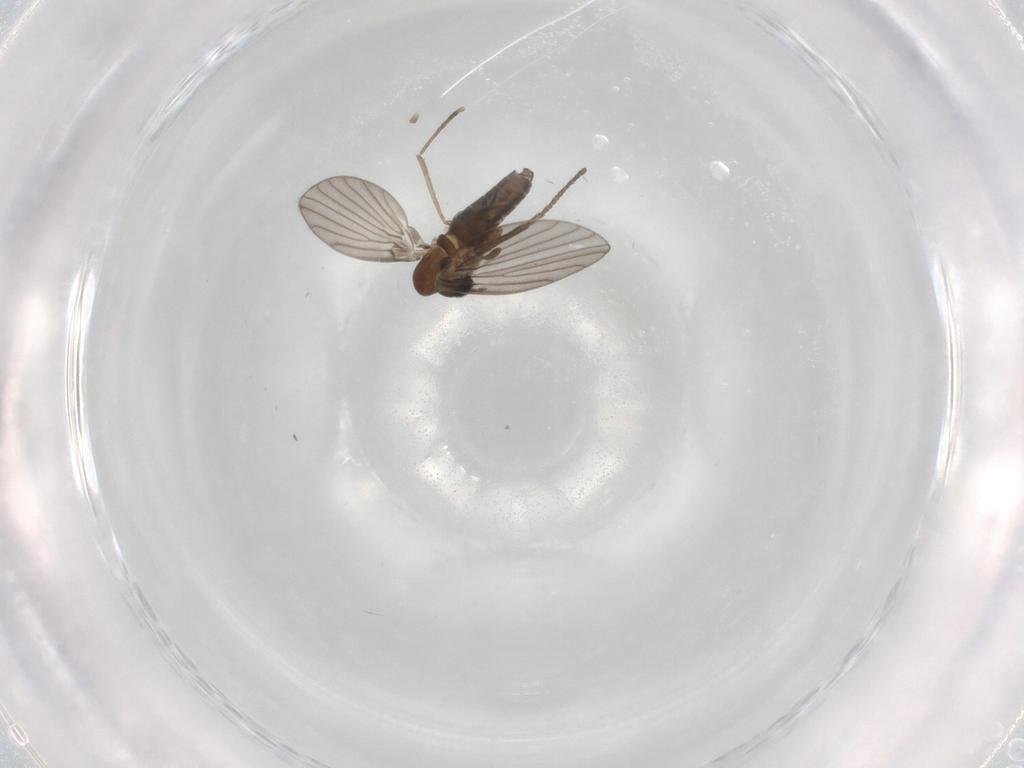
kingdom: Animalia
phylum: Arthropoda
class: Insecta
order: Diptera
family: Psychodidae
